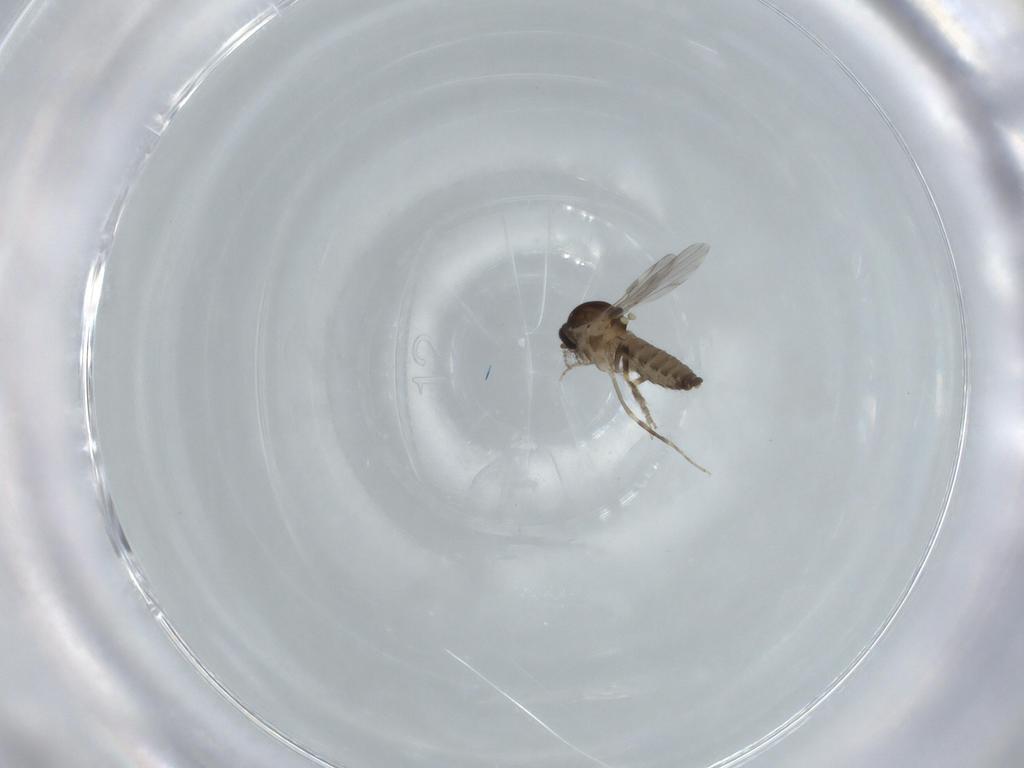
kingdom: Animalia
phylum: Arthropoda
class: Insecta
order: Diptera
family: Ceratopogonidae
